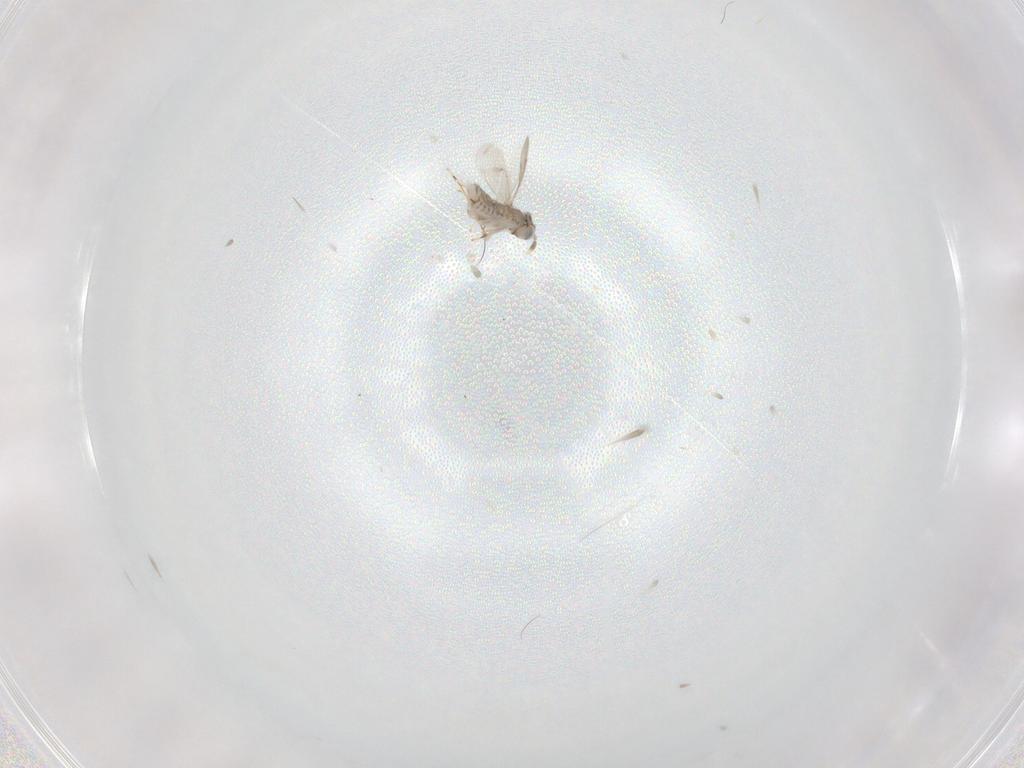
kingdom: Animalia
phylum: Arthropoda
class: Insecta
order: Hymenoptera
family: Aphelinidae
